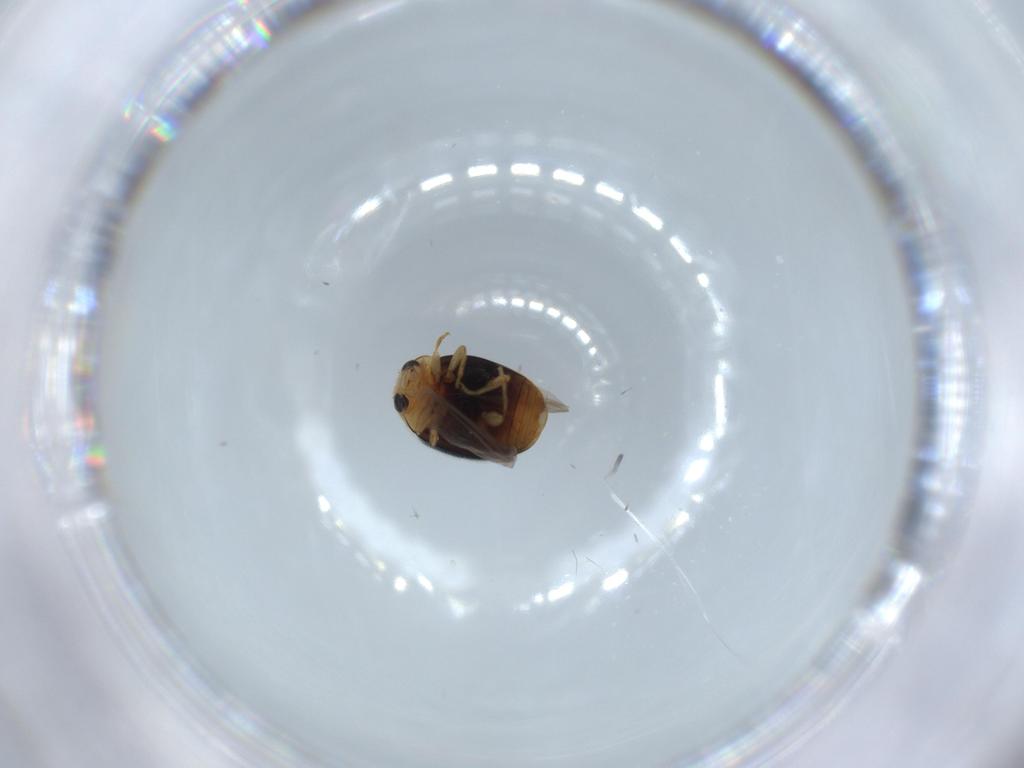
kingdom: Animalia
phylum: Arthropoda
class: Insecta
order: Coleoptera
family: Coccinellidae
